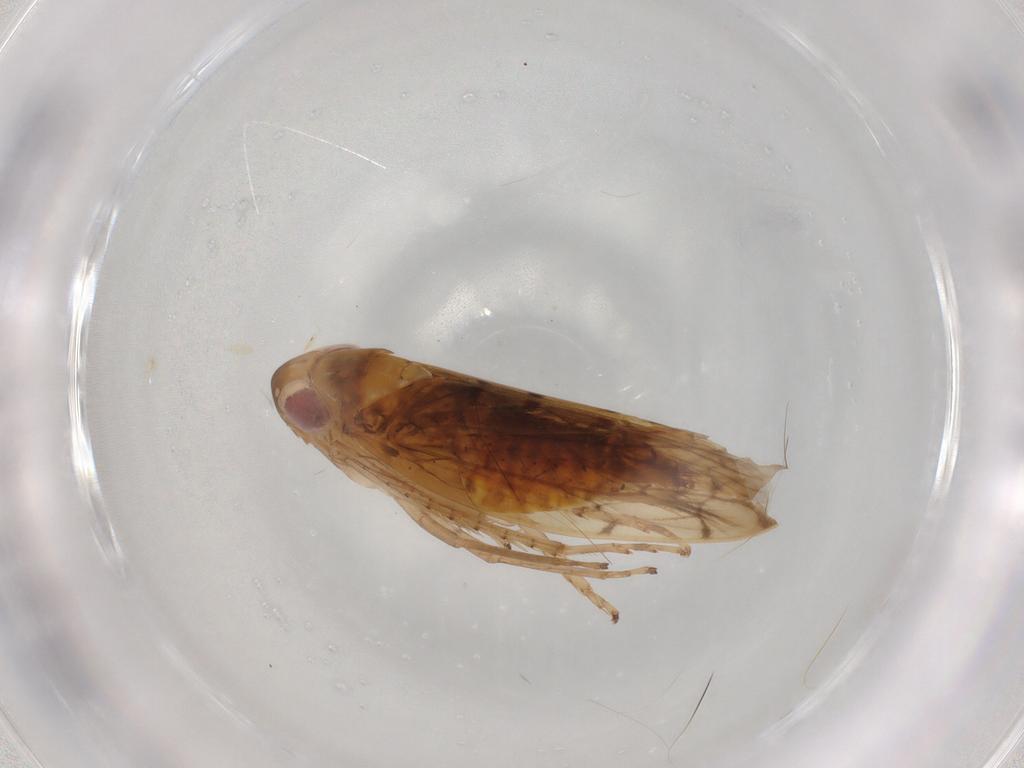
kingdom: Animalia
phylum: Arthropoda
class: Insecta
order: Hemiptera
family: Cicadellidae
